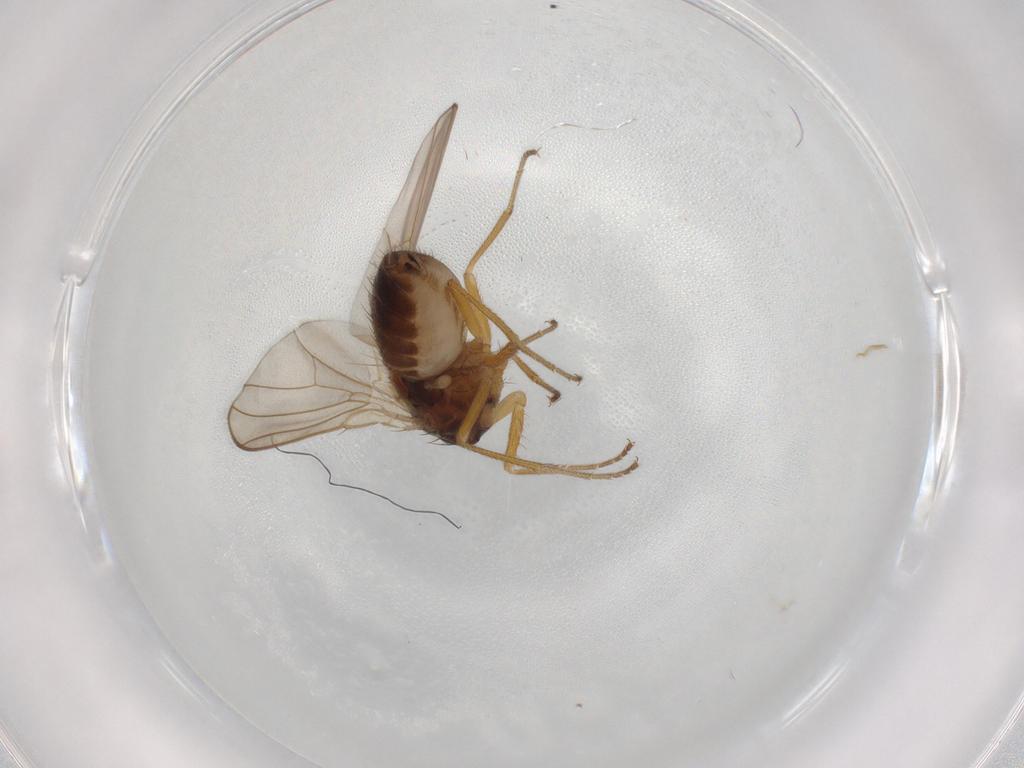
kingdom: Animalia
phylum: Arthropoda
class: Insecta
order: Diptera
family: Drosophilidae
